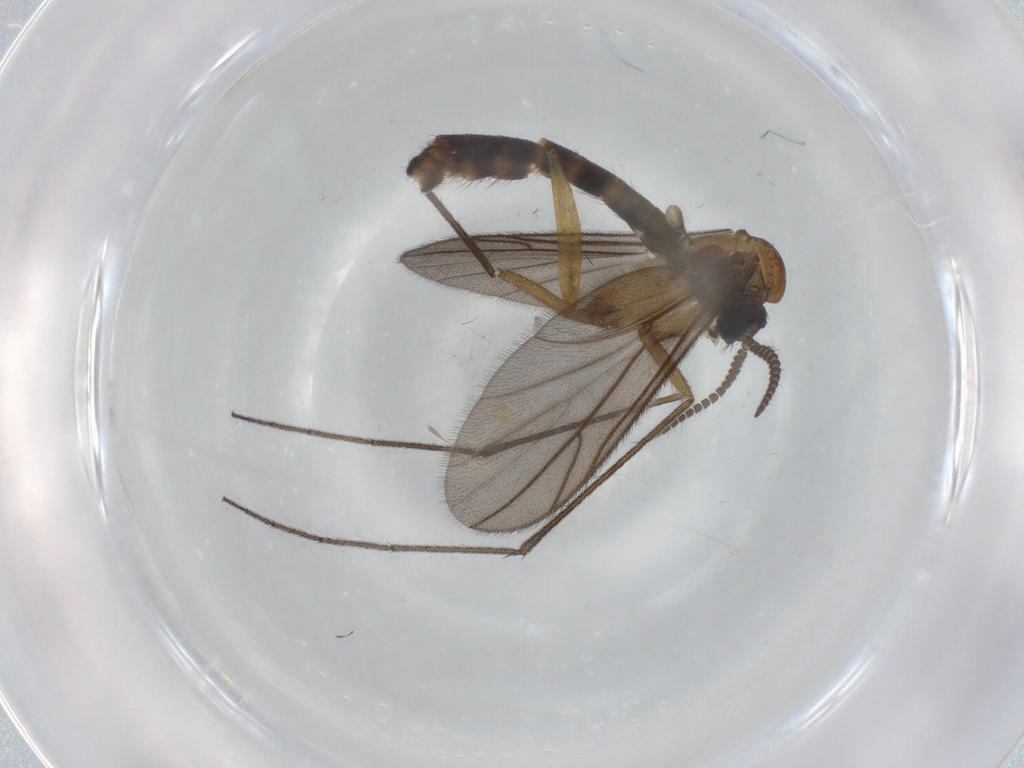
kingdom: Animalia
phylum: Arthropoda
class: Insecta
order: Diptera
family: Ditomyiidae
